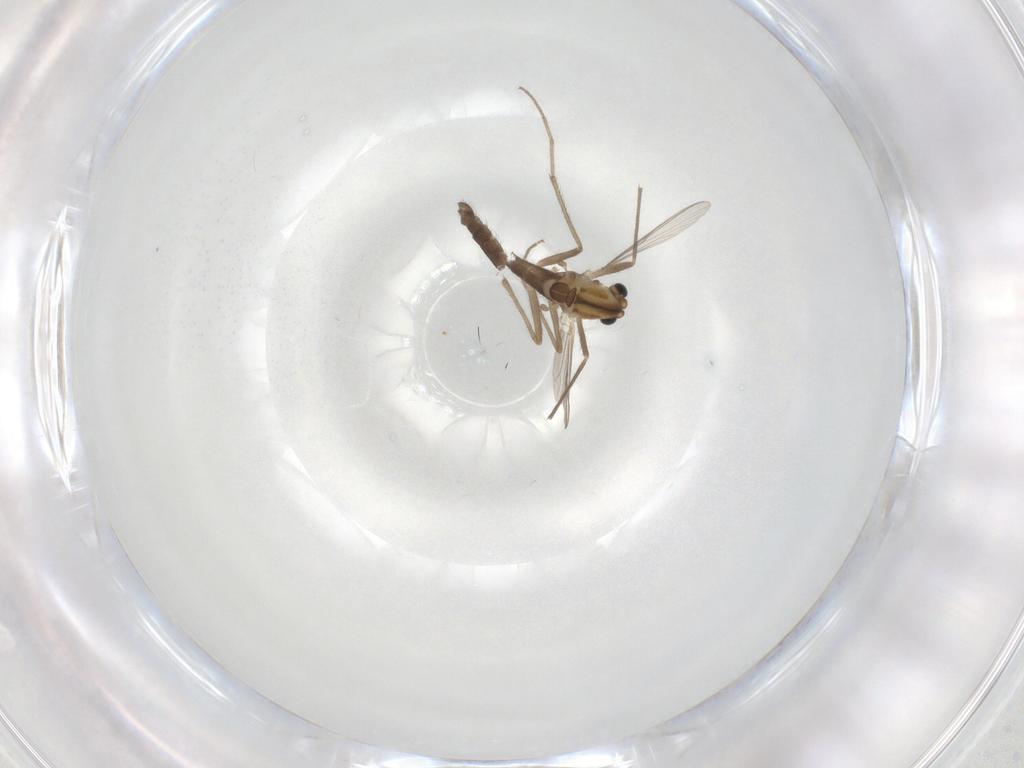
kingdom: Animalia
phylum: Arthropoda
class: Insecta
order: Diptera
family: Chironomidae
